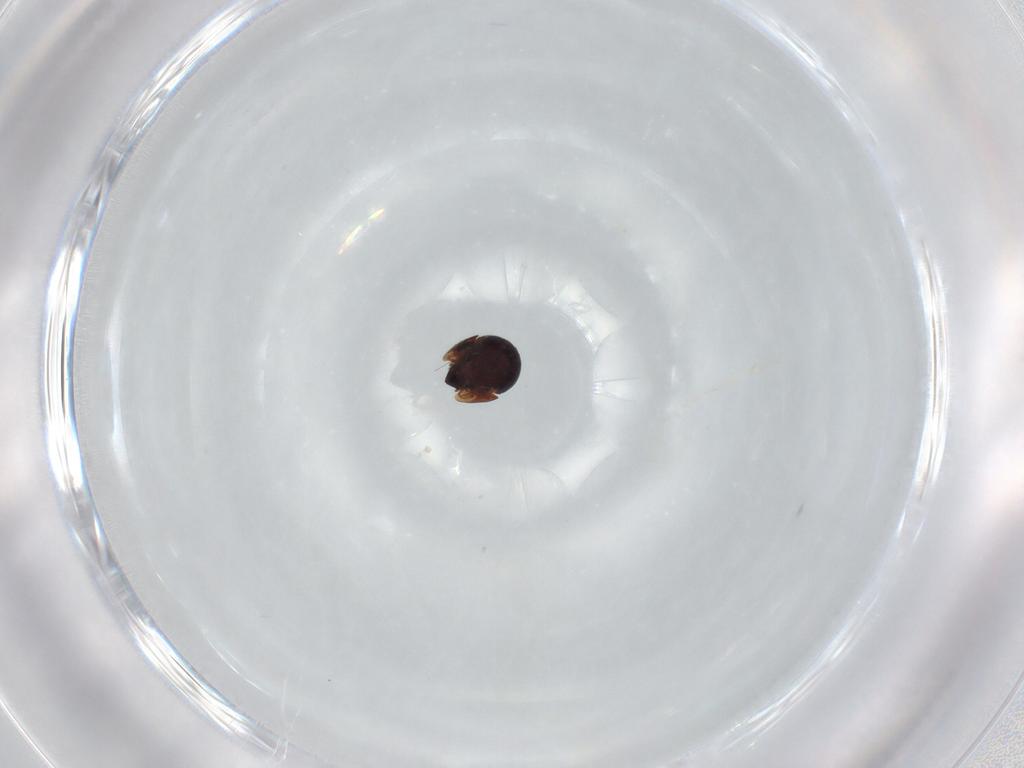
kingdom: Animalia
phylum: Arthropoda
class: Arachnida
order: Sarcoptiformes
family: Ceratozetidae
